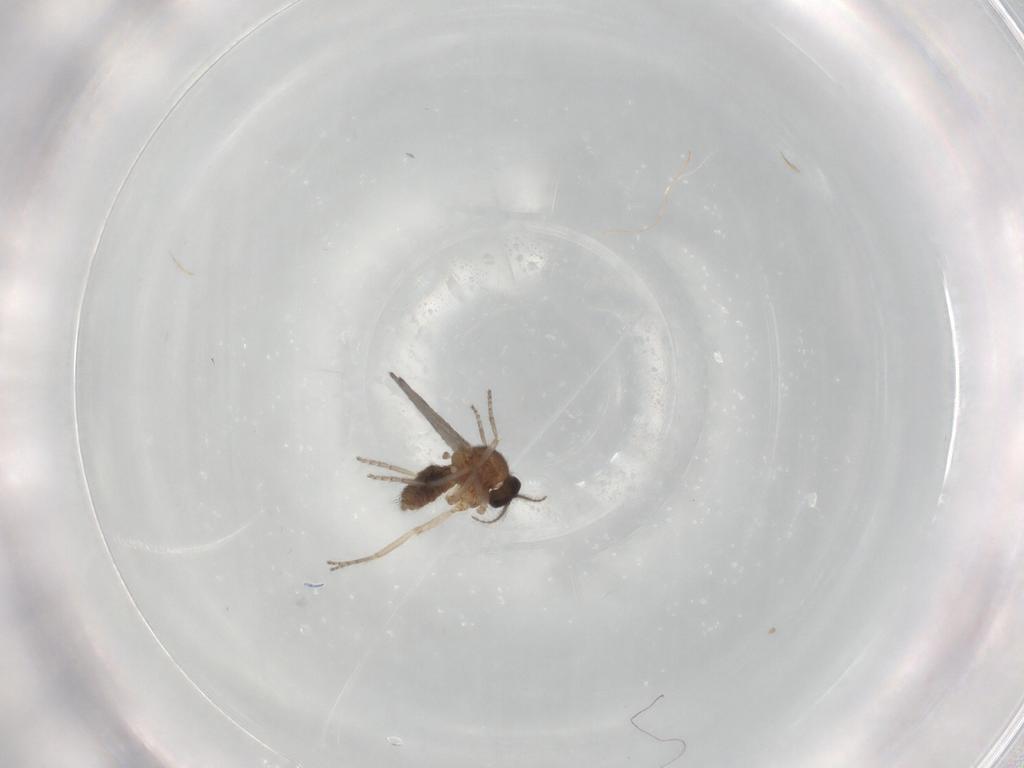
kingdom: Animalia
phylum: Arthropoda
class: Insecta
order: Diptera
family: Ceratopogonidae
